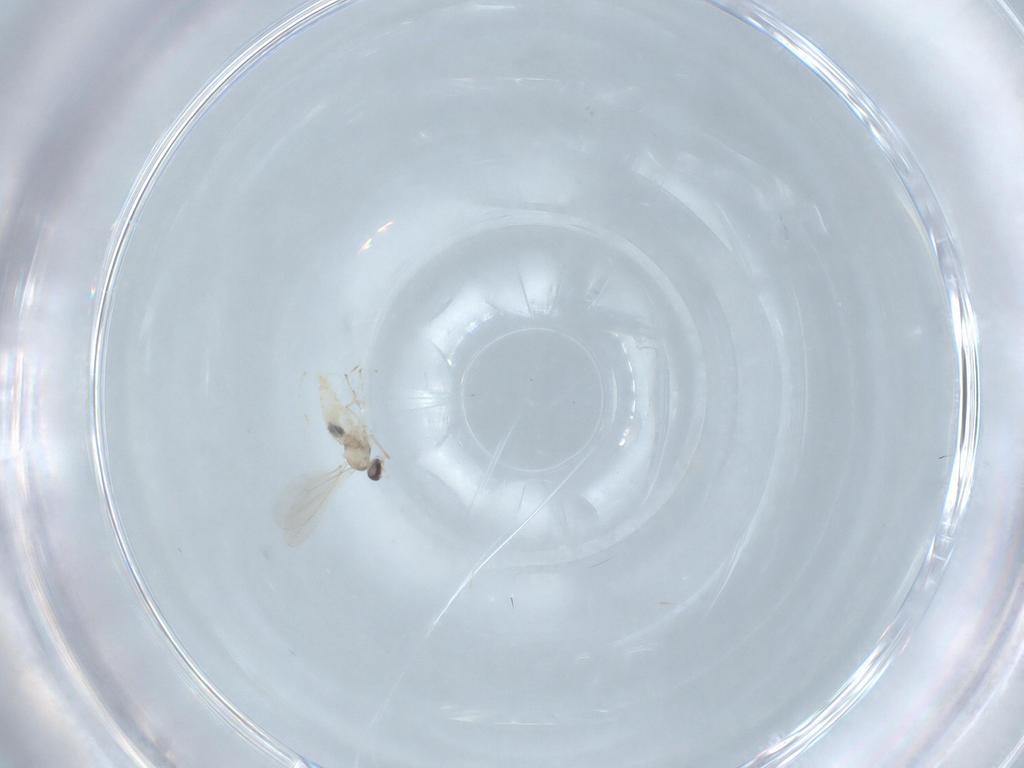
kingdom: Animalia
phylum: Arthropoda
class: Insecta
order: Diptera
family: Cecidomyiidae
